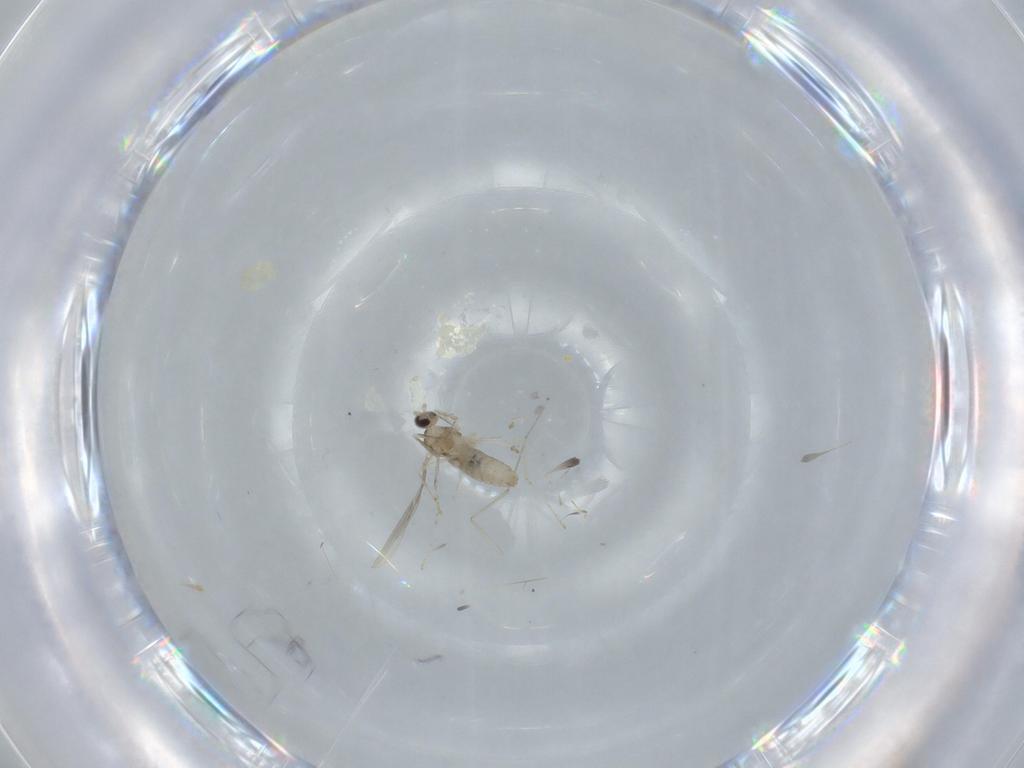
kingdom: Animalia
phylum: Arthropoda
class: Insecta
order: Diptera
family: Cecidomyiidae
